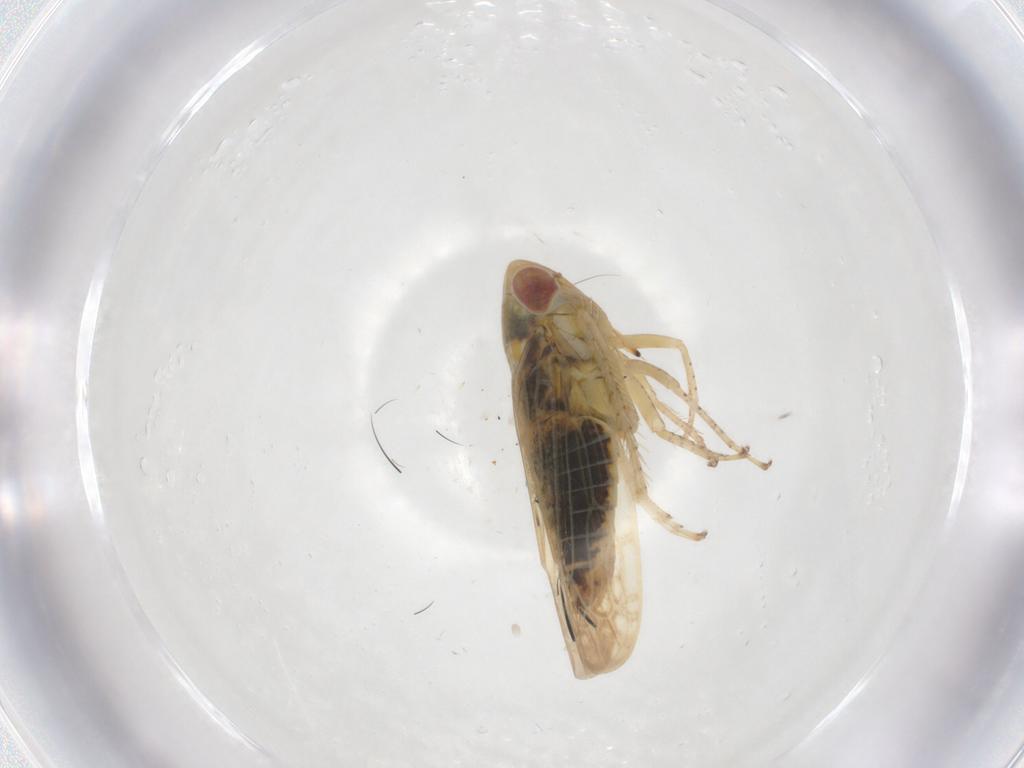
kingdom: Animalia
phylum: Arthropoda
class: Insecta
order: Hemiptera
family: Cicadellidae
